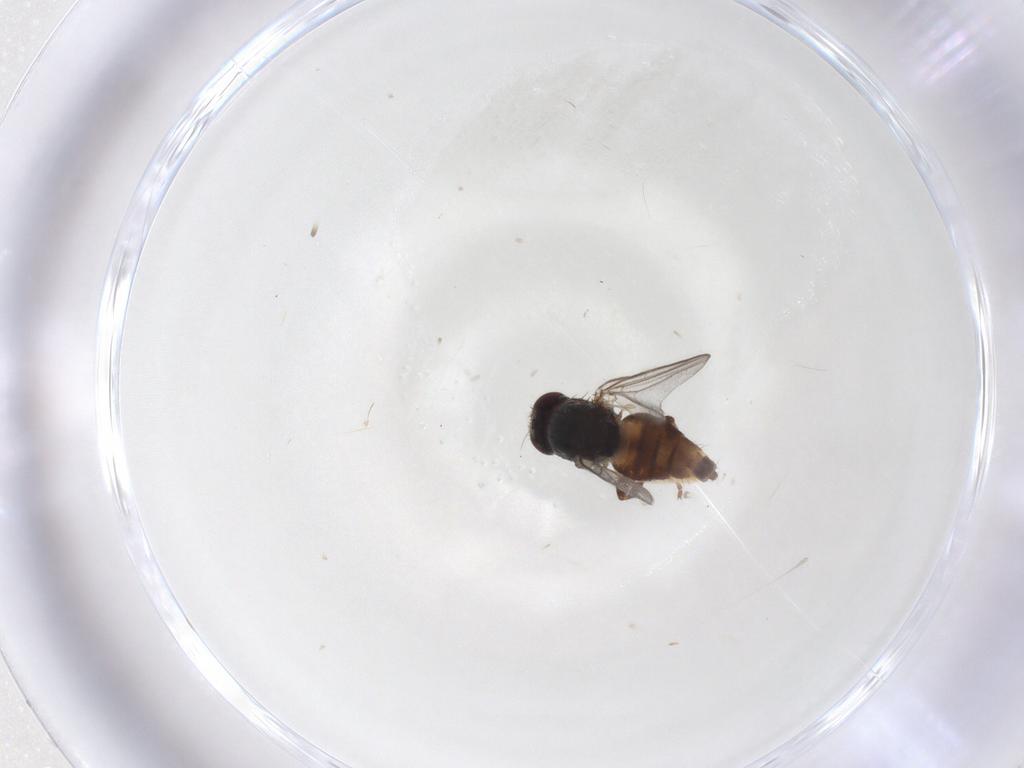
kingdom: Animalia
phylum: Arthropoda
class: Insecta
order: Diptera
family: Chloropidae
